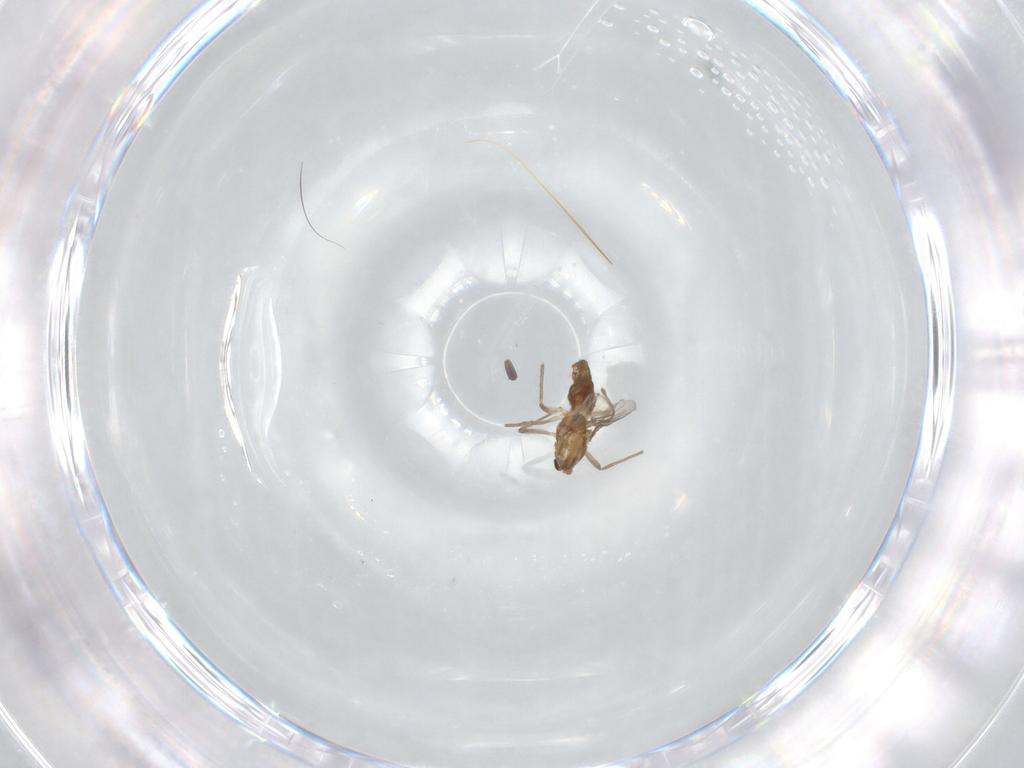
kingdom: Animalia
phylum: Arthropoda
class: Insecta
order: Diptera
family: Chironomidae
